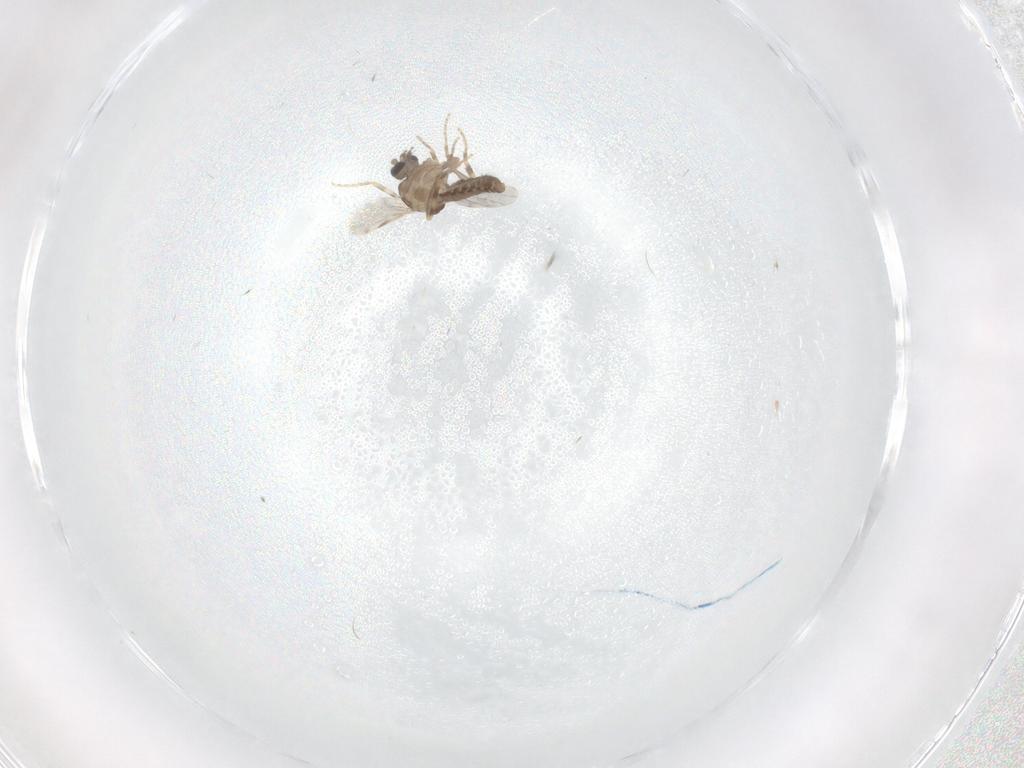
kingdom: Animalia
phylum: Arthropoda
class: Insecta
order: Diptera
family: Ceratopogonidae
